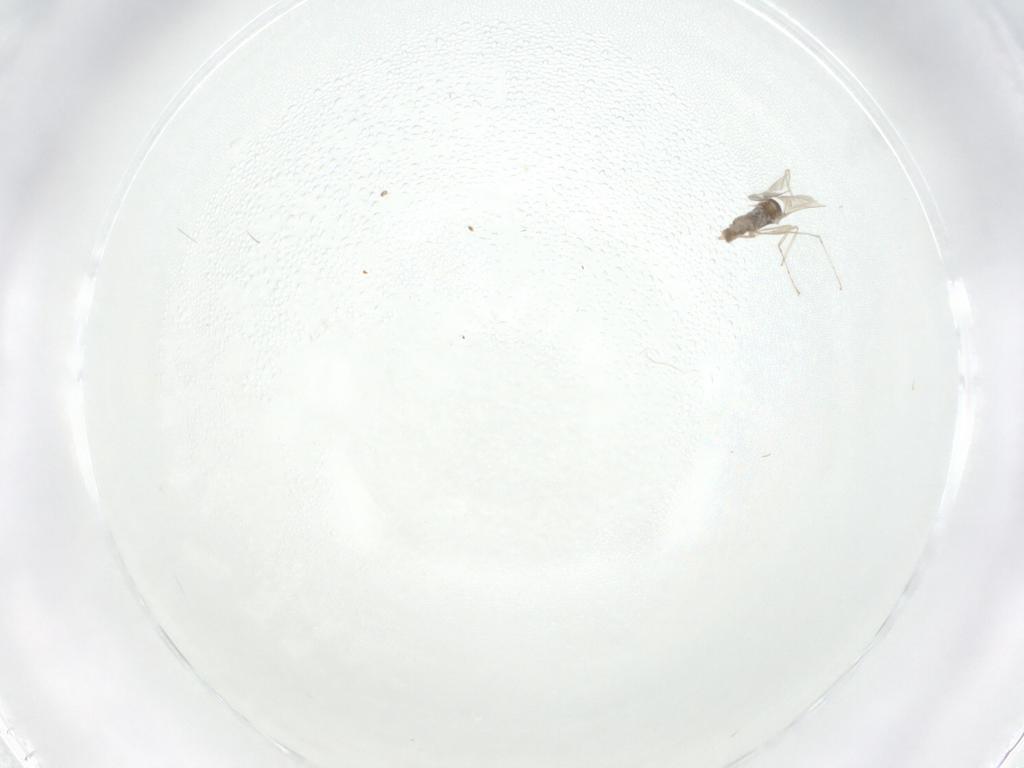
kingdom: Animalia
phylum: Arthropoda
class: Insecta
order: Diptera
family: Cecidomyiidae
